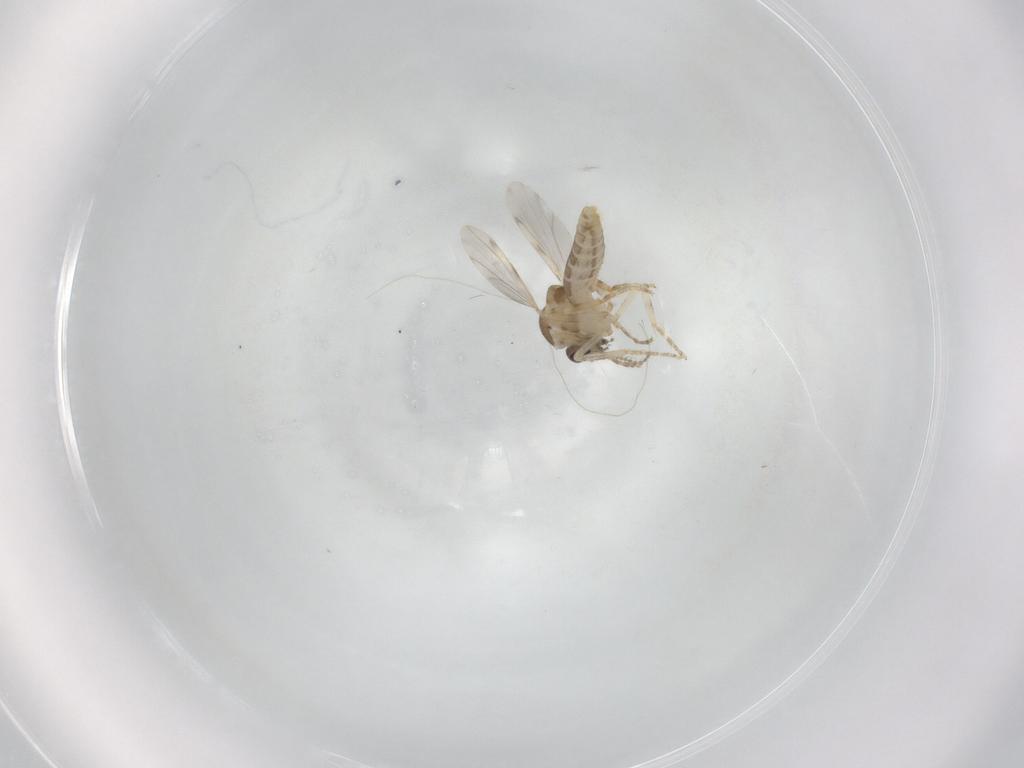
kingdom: Animalia
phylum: Arthropoda
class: Insecta
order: Diptera
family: Ceratopogonidae
